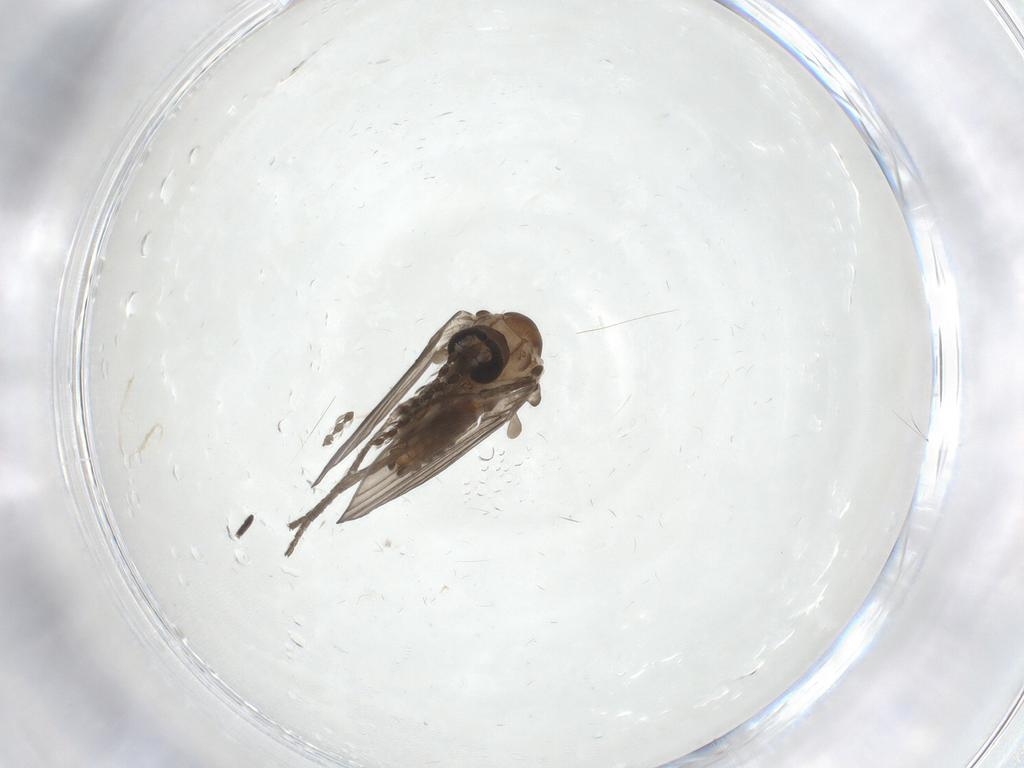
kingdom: Animalia
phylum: Arthropoda
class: Insecta
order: Diptera
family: Psychodidae
